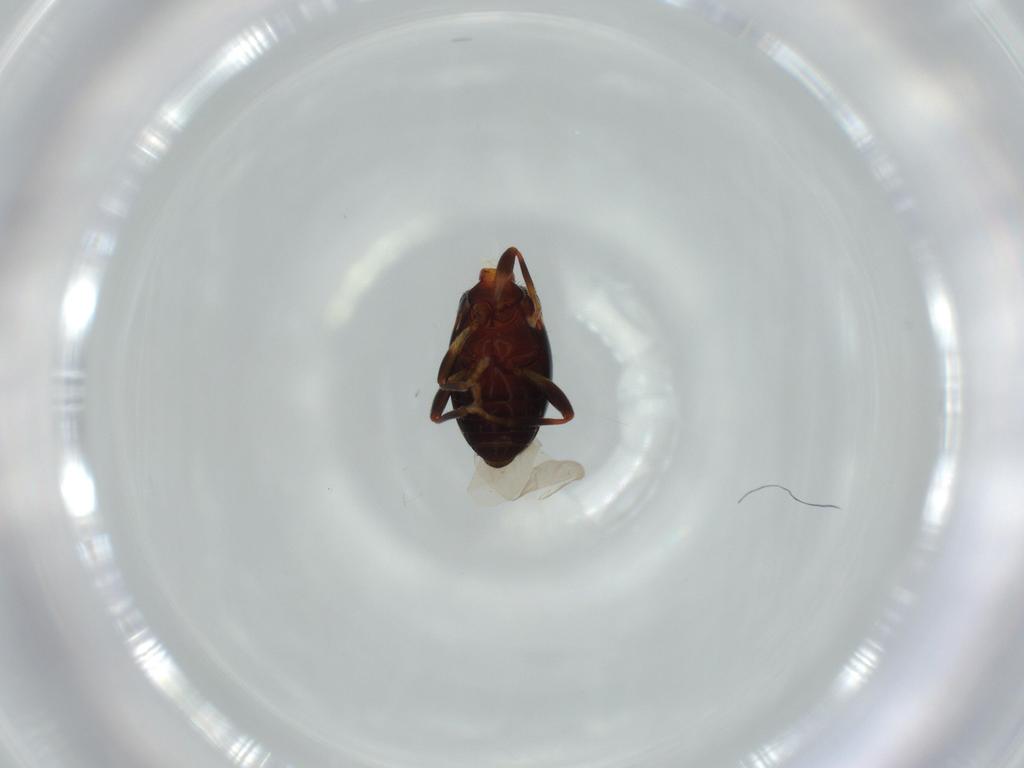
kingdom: Animalia
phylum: Arthropoda
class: Insecta
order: Coleoptera
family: Anthicidae
